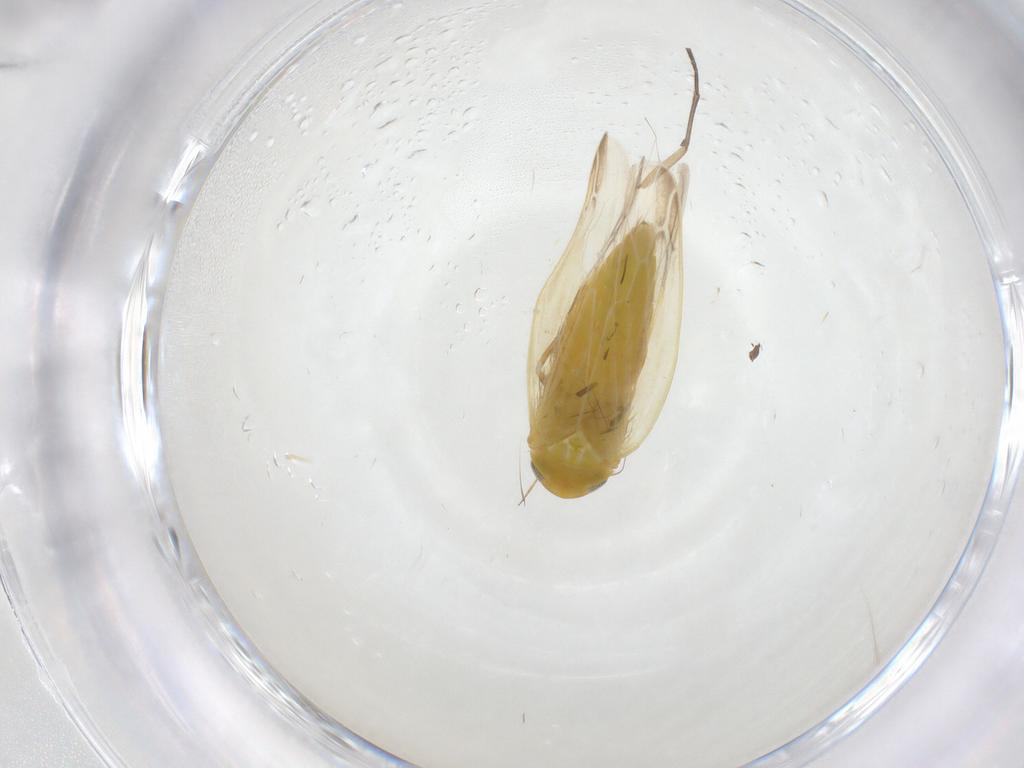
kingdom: Animalia
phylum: Arthropoda
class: Insecta
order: Hemiptera
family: Cicadellidae
